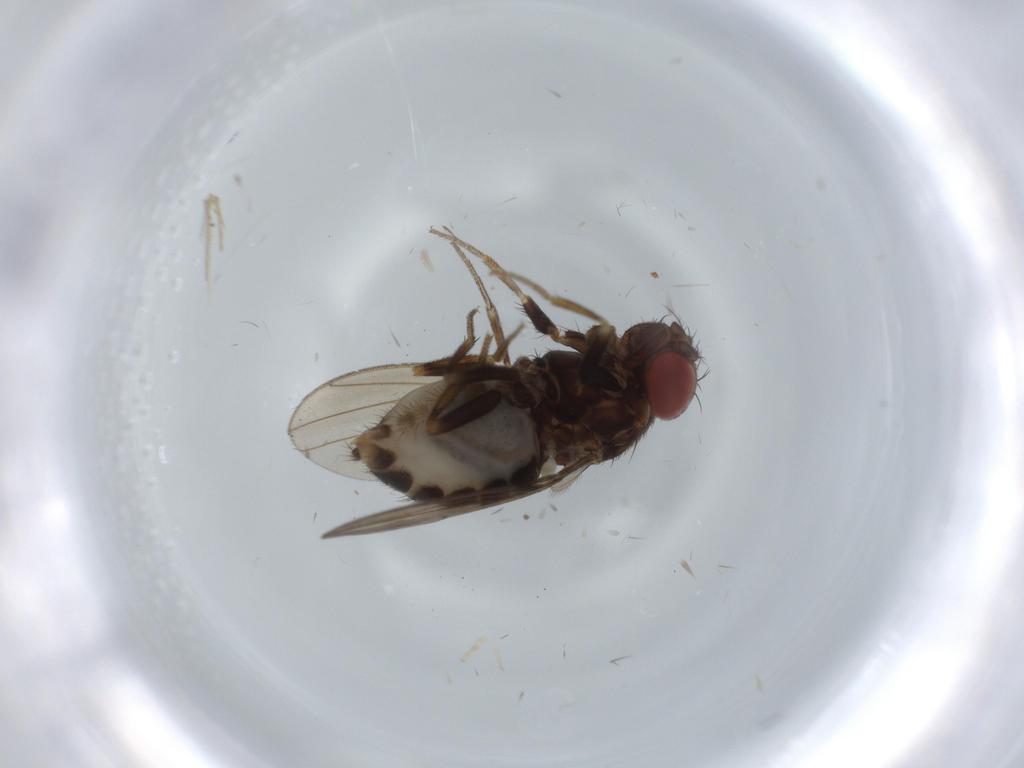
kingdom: Animalia
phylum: Arthropoda
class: Insecta
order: Diptera
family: Drosophilidae
